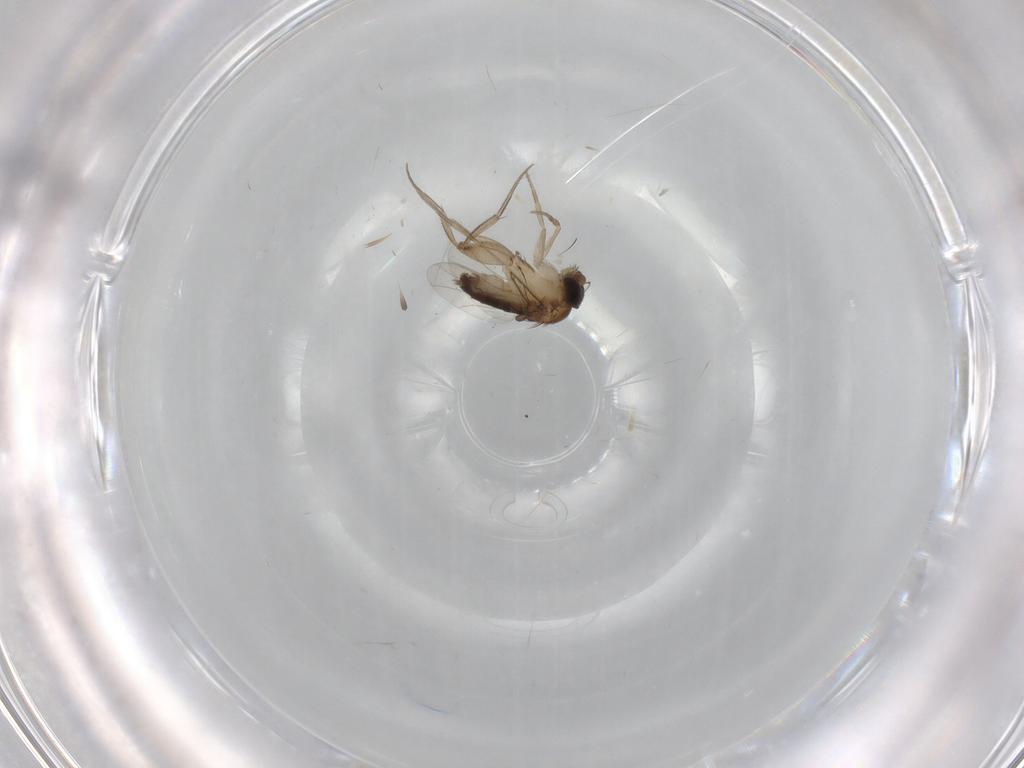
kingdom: Animalia
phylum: Arthropoda
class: Insecta
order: Diptera
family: Phoridae
